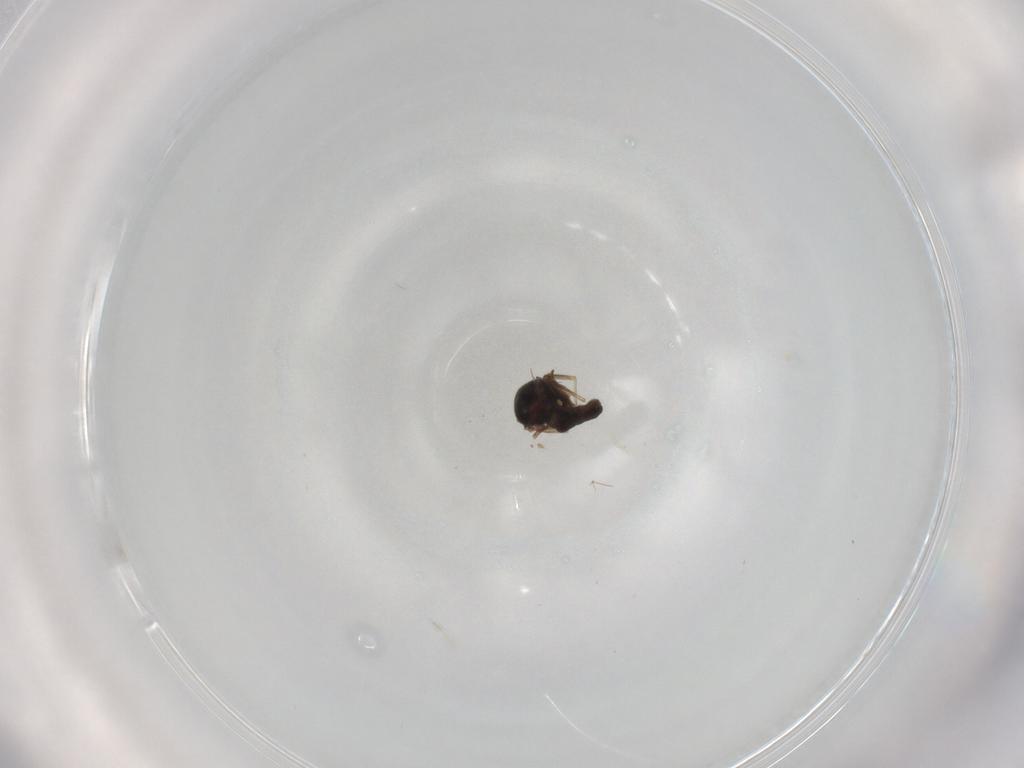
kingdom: Animalia
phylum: Arthropoda
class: Insecta
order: Diptera
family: Ceratopogonidae
